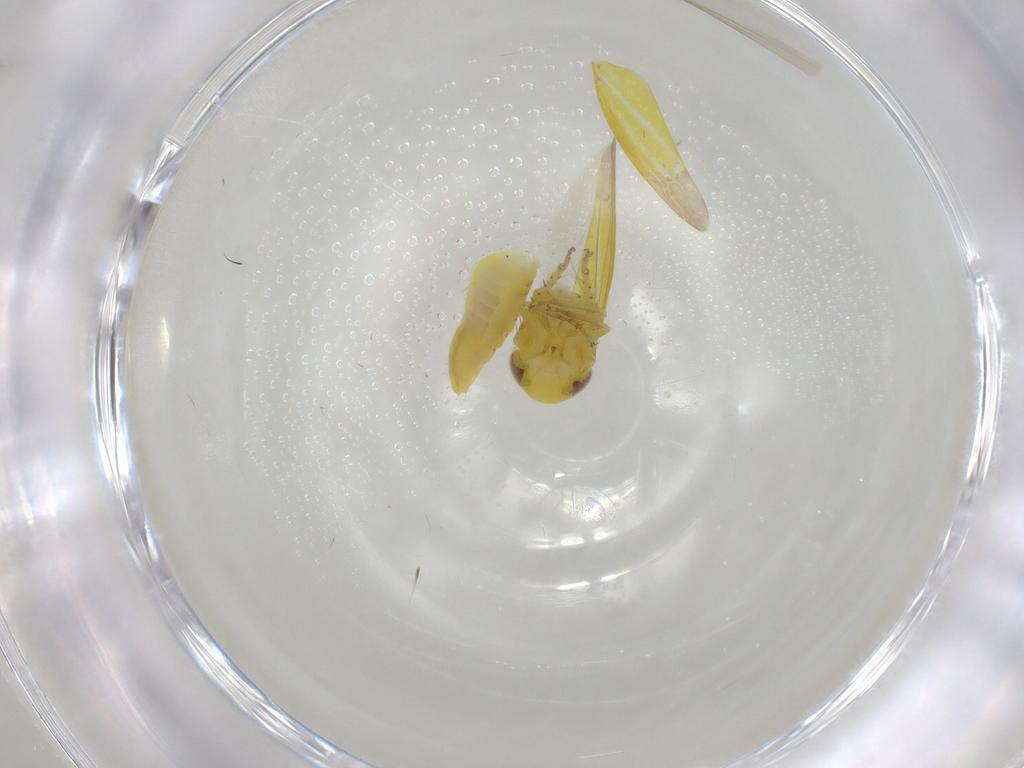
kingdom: Animalia
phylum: Arthropoda
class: Insecta
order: Hemiptera
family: Cicadellidae
